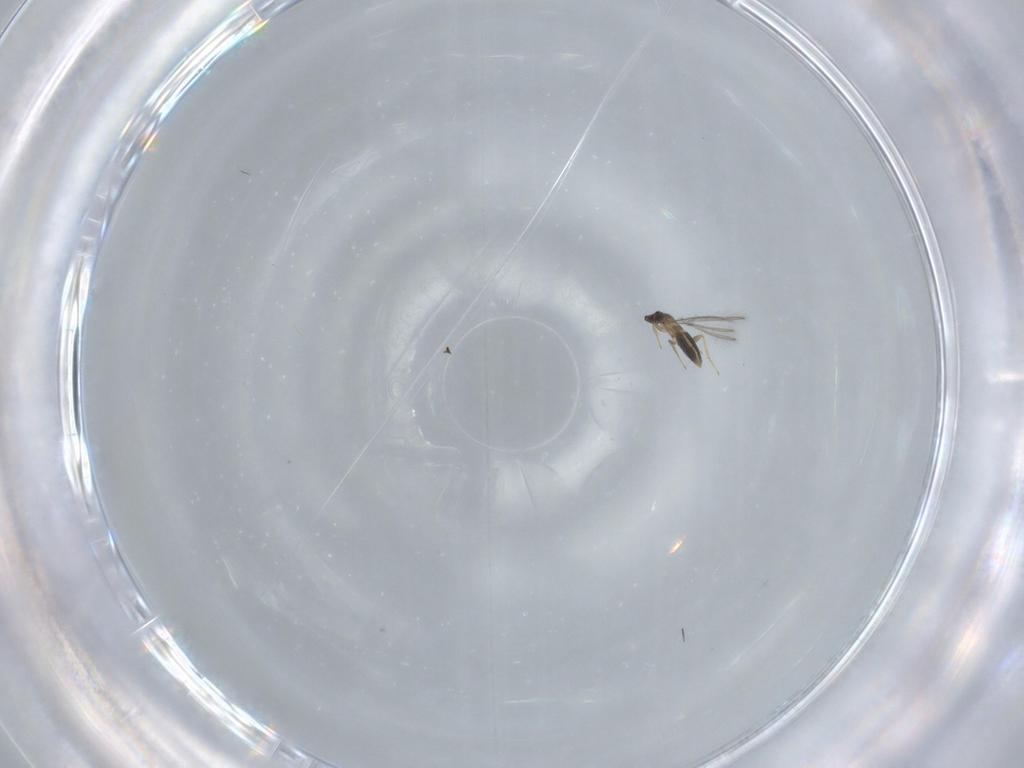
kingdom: Animalia
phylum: Arthropoda
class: Insecta
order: Hymenoptera
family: Mymaridae
